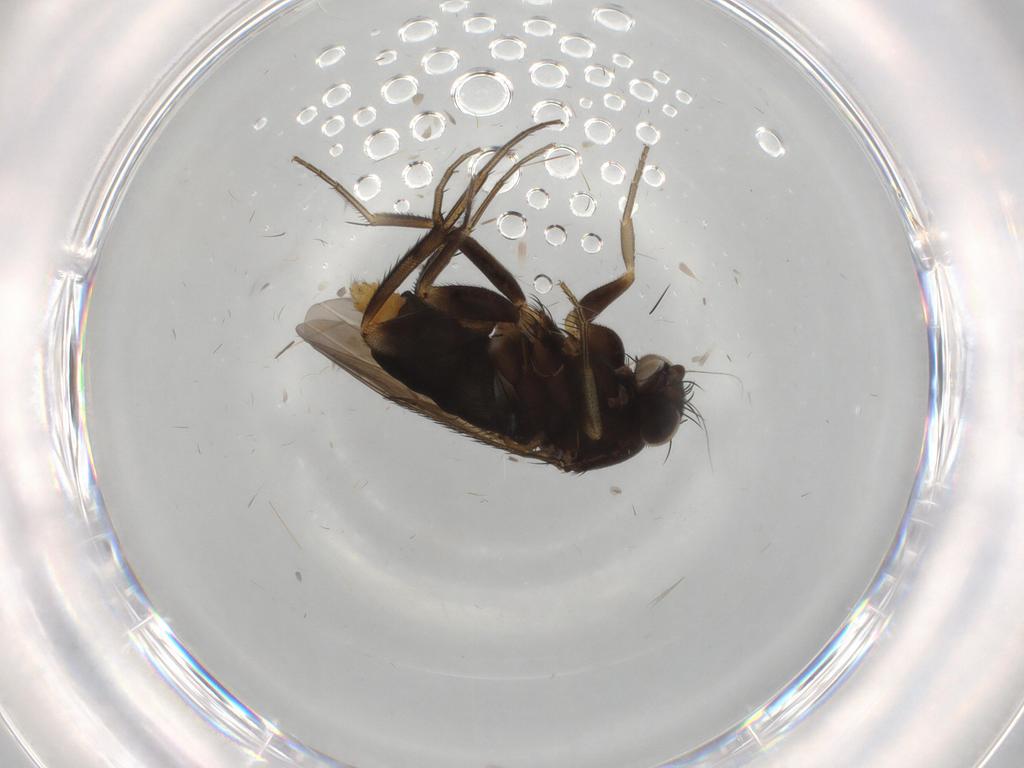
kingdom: Animalia
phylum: Arthropoda
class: Insecta
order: Diptera
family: Phoridae
